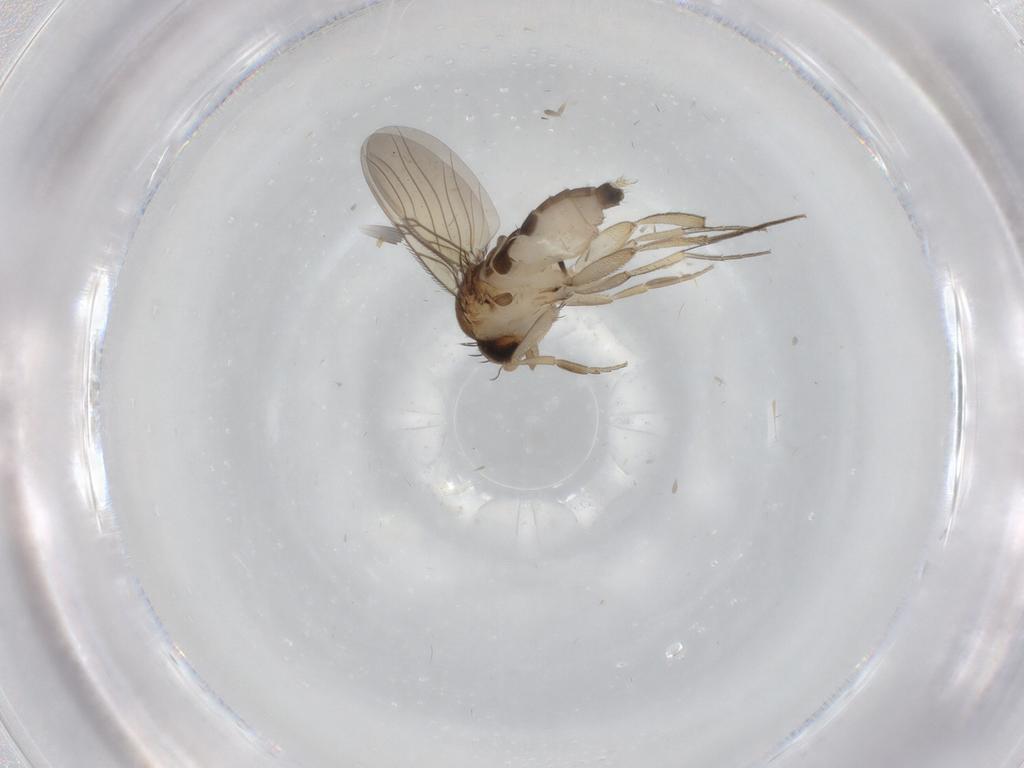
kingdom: Animalia
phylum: Arthropoda
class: Insecta
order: Diptera
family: Phoridae
